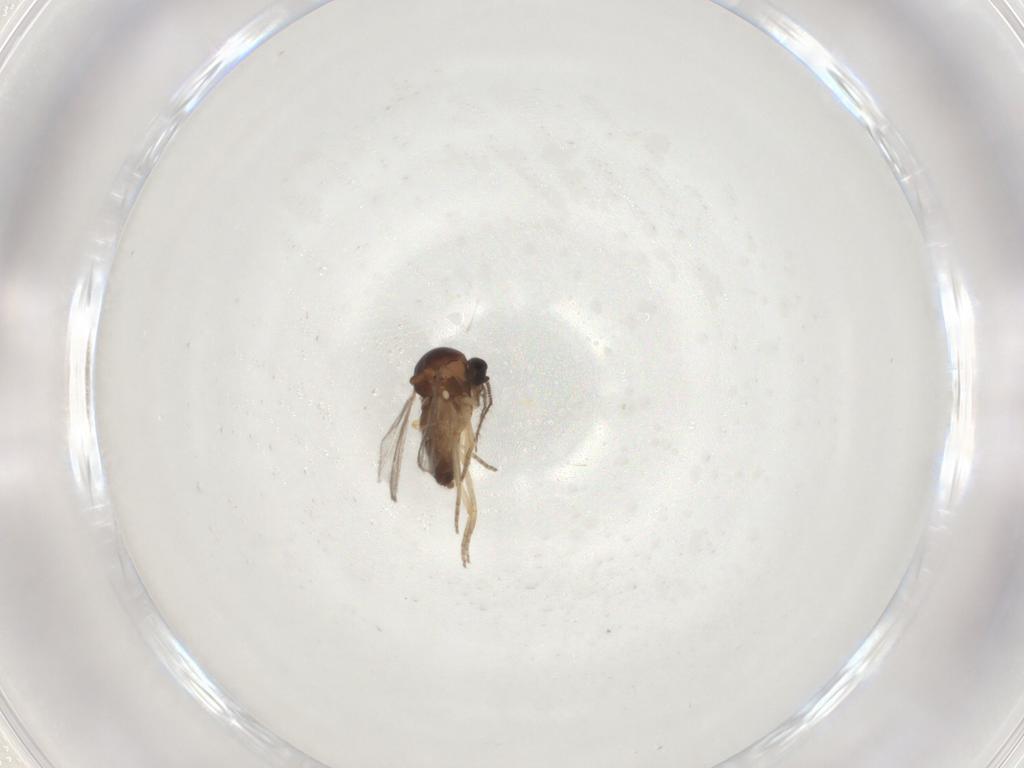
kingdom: Animalia
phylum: Arthropoda
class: Insecta
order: Diptera
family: Ceratopogonidae
